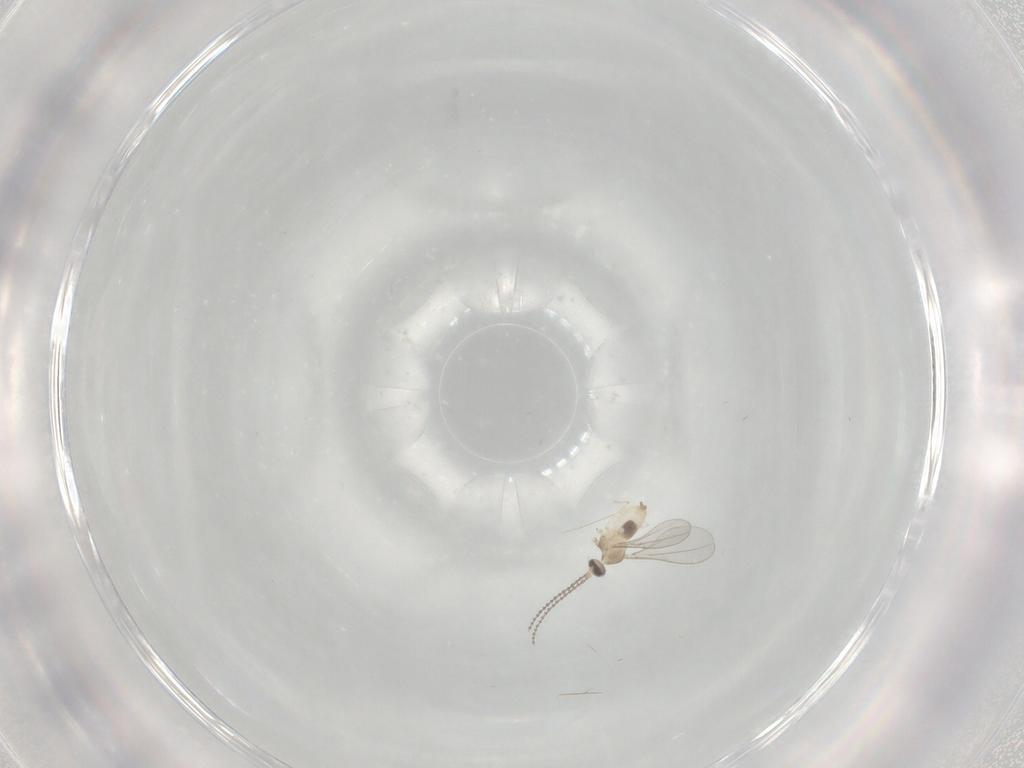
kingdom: Animalia
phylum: Arthropoda
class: Insecta
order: Diptera
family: Cecidomyiidae
